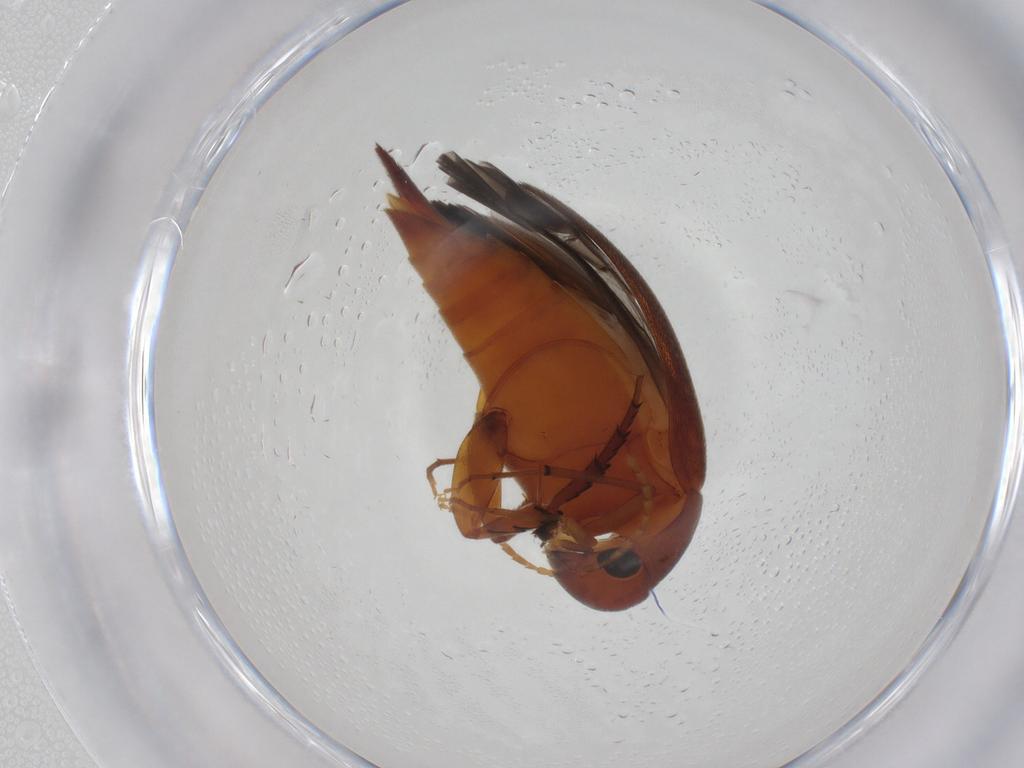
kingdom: Animalia
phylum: Arthropoda
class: Insecta
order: Coleoptera
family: Mordellidae
